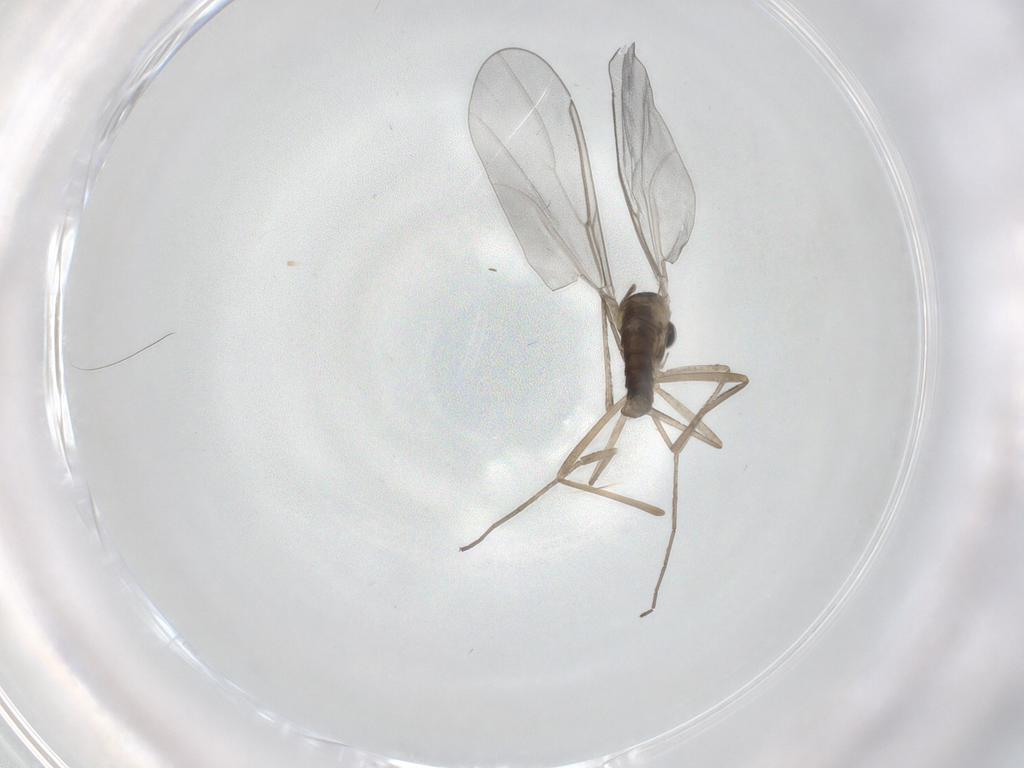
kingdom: Animalia
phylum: Arthropoda
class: Insecta
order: Diptera
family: Cecidomyiidae
